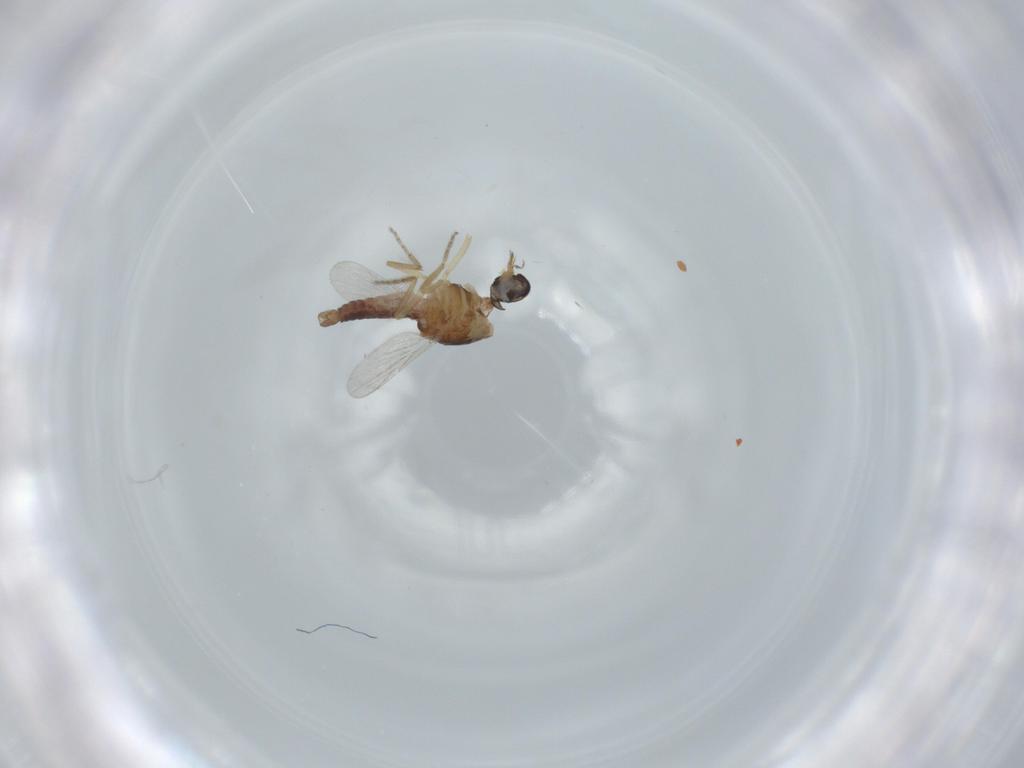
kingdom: Animalia
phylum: Arthropoda
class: Insecta
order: Diptera
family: Ceratopogonidae
